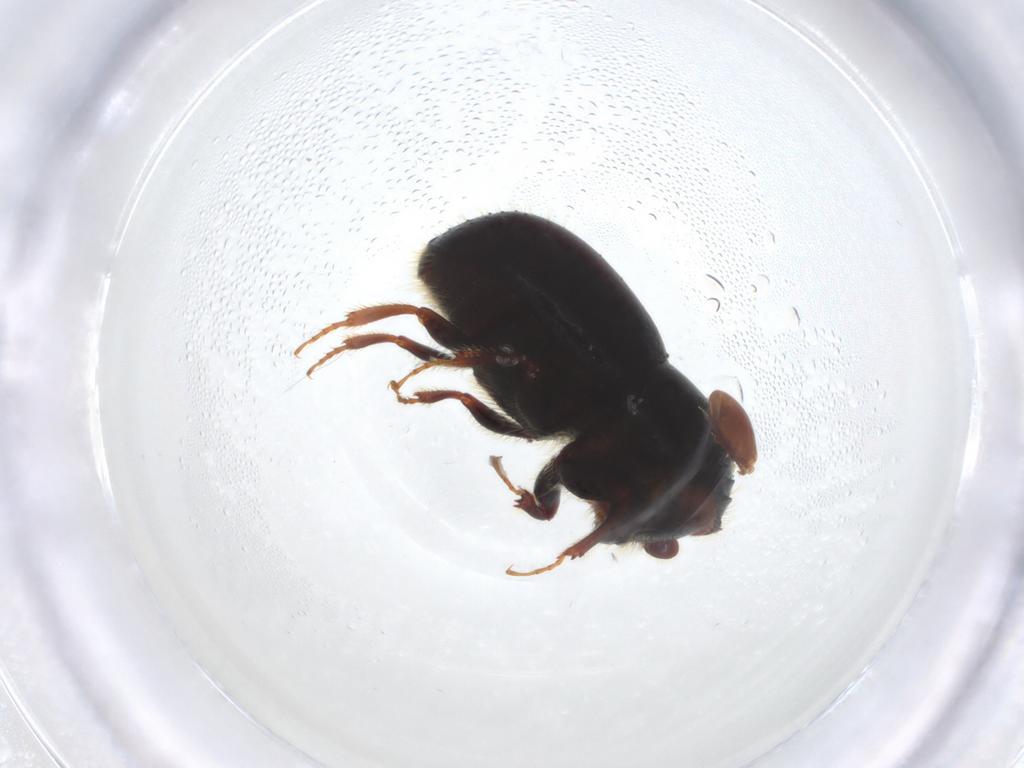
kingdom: Animalia
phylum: Arthropoda
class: Insecta
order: Coleoptera
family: Curculionidae
